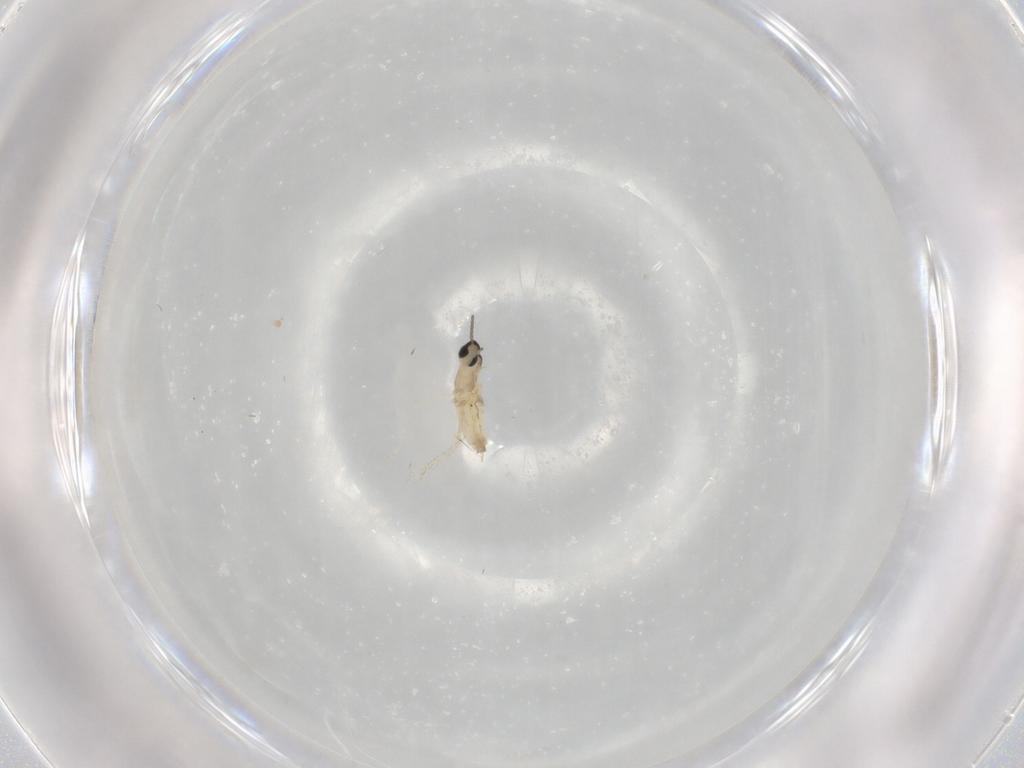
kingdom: Animalia
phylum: Arthropoda
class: Insecta
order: Diptera
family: Cecidomyiidae
